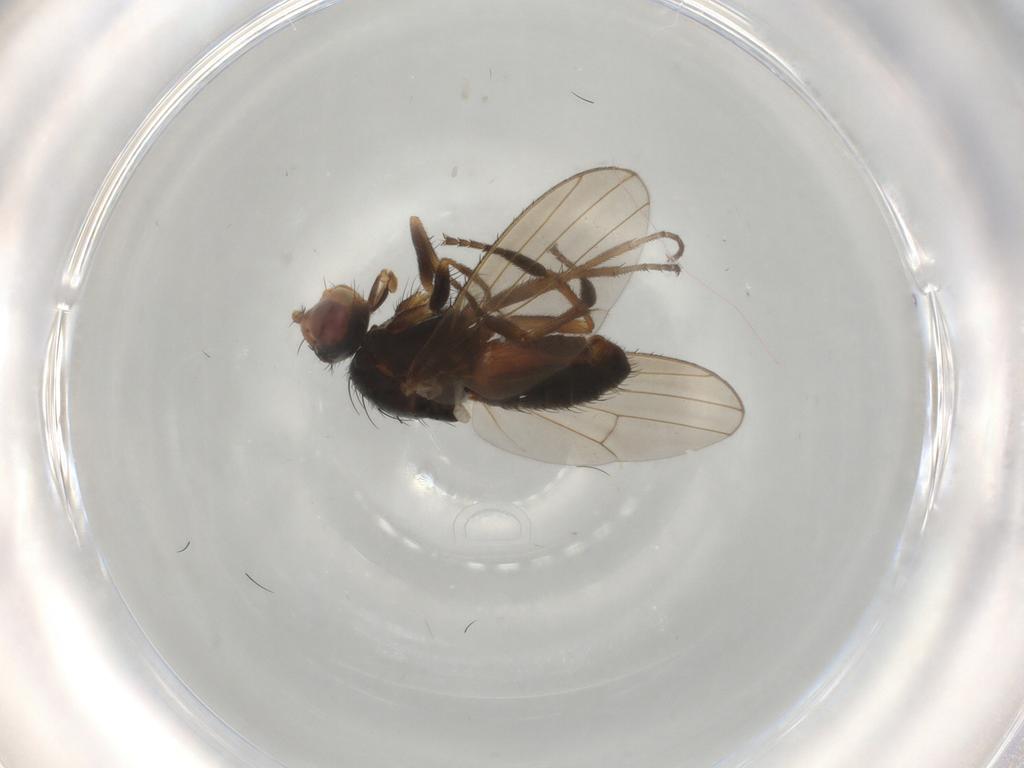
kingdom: Animalia
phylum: Arthropoda
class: Insecta
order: Diptera
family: Heleomyzidae
